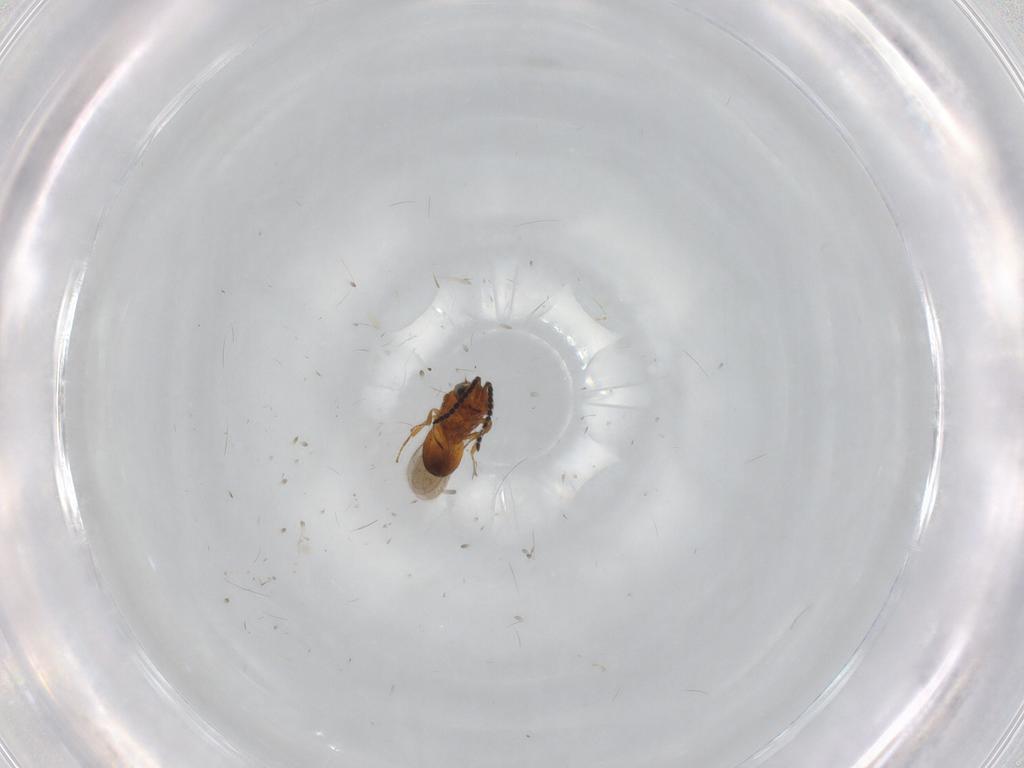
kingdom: Animalia
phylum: Arthropoda
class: Insecta
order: Hymenoptera
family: Scelionidae
